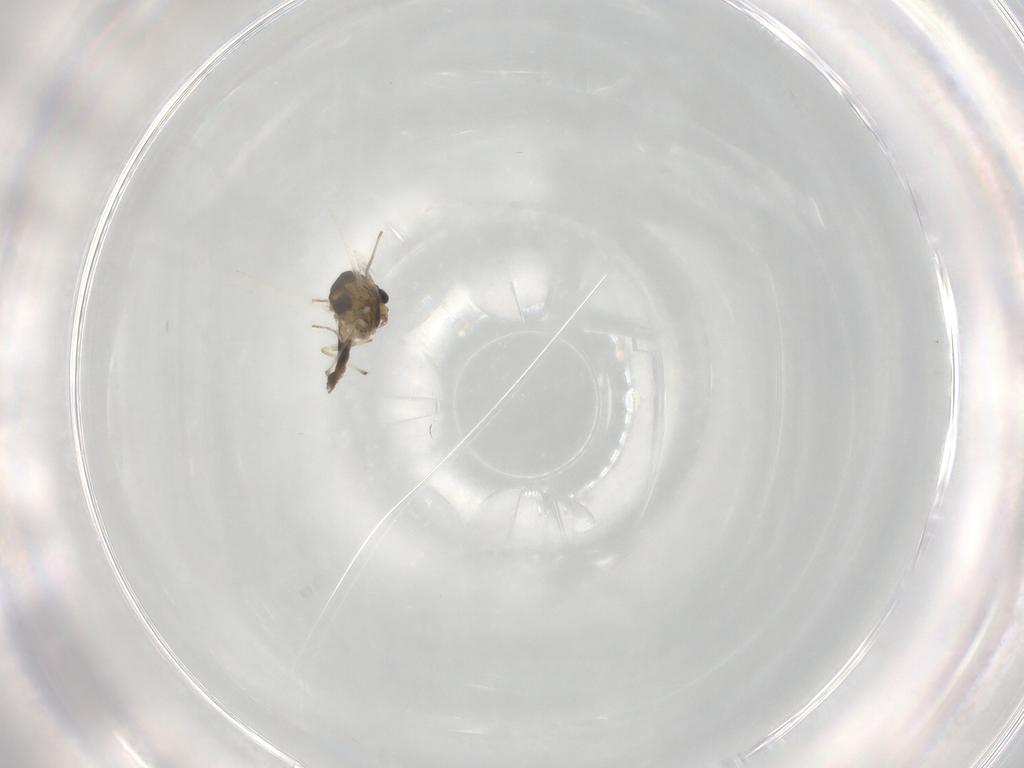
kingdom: Animalia
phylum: Arthropoda
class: Insecta
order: Diptera
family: Chironomidae
